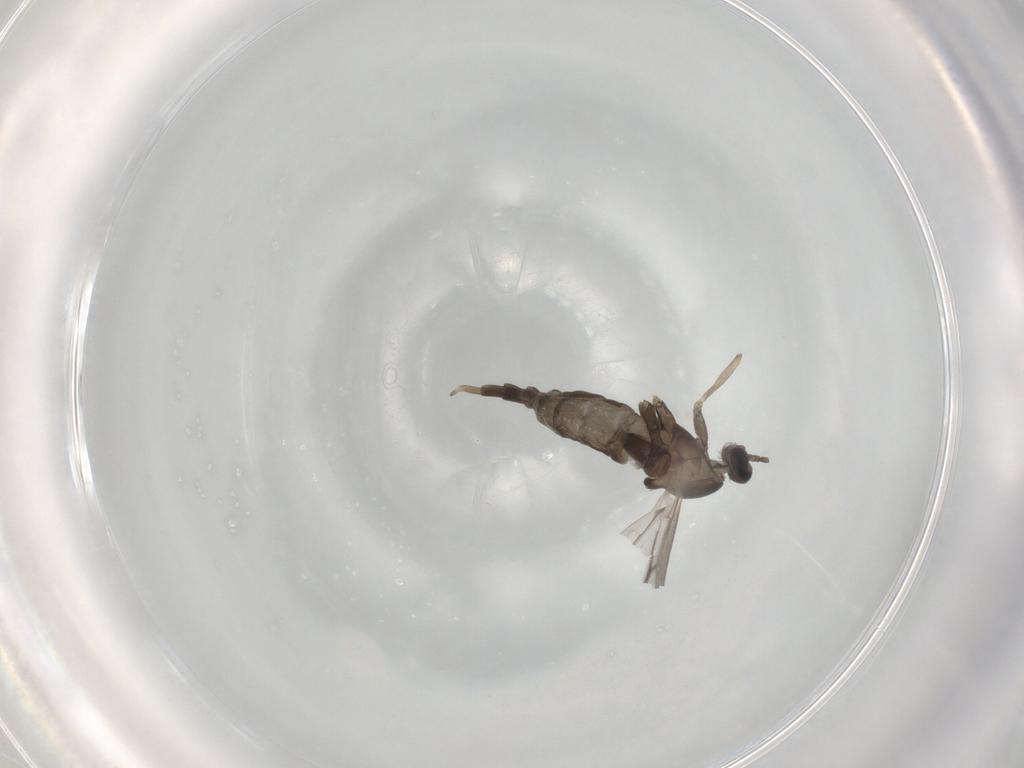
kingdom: Animalia
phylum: Arthropoda
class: Insecta
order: Diptera
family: Cecidomyiidae
